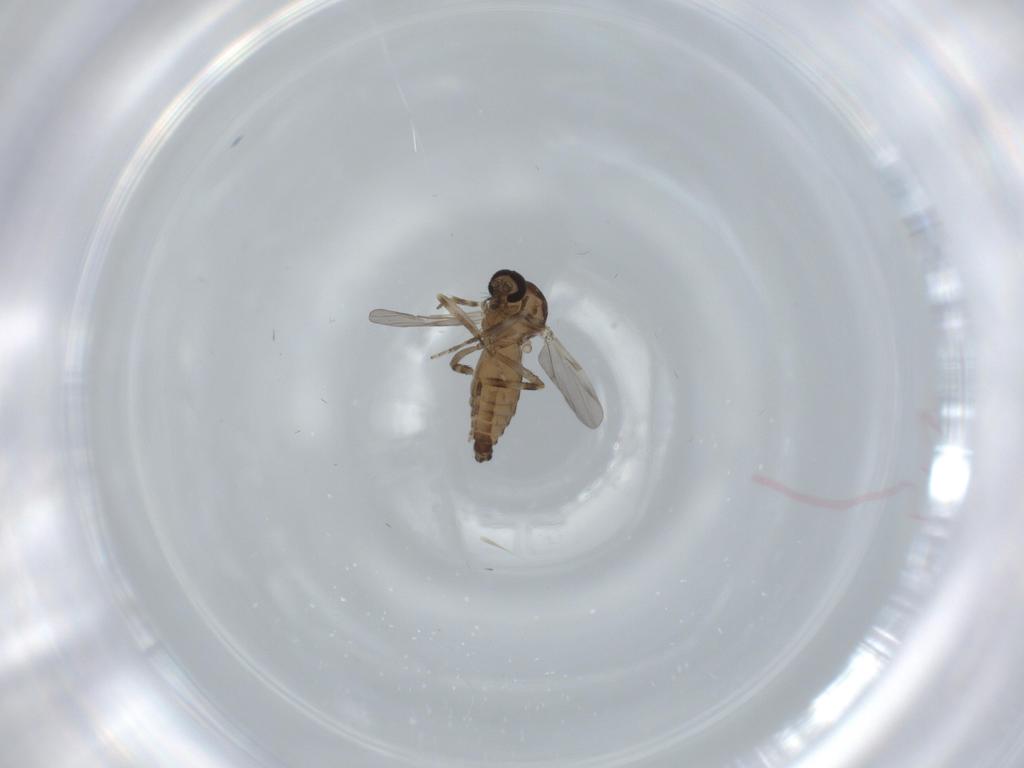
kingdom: Animalia
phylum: Arthropoda
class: Insecta
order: Diptera
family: Ceratopogonidae
